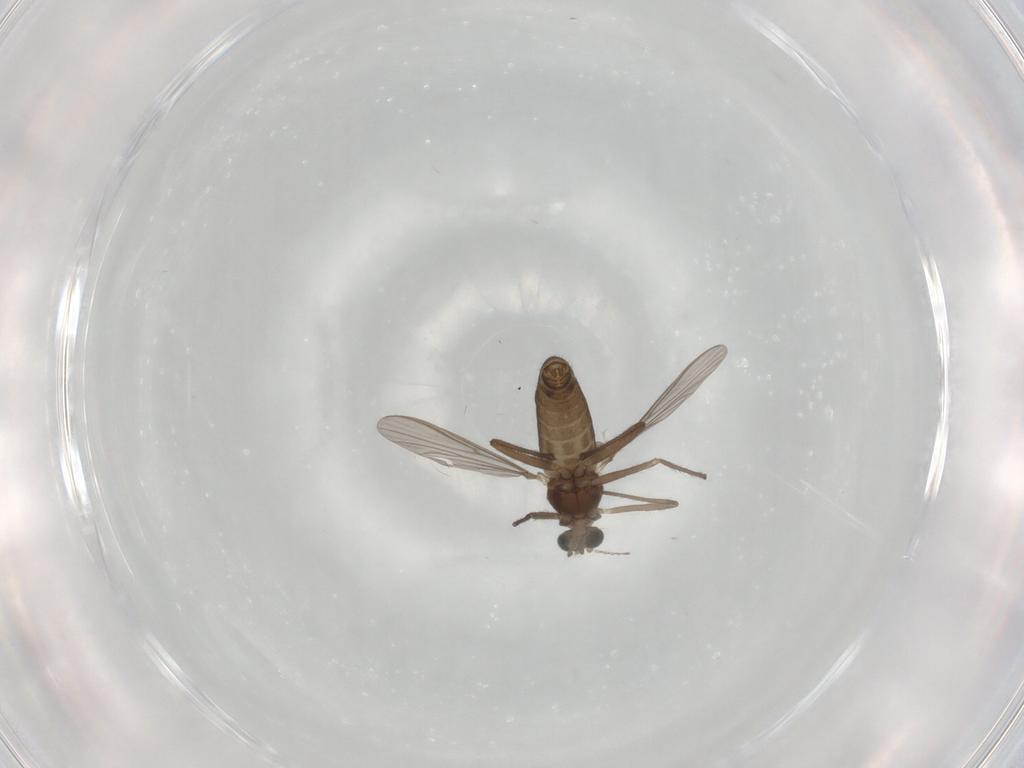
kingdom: Animalia
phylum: Arthropoda
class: Insecta
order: Diptera
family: Chironomidae
